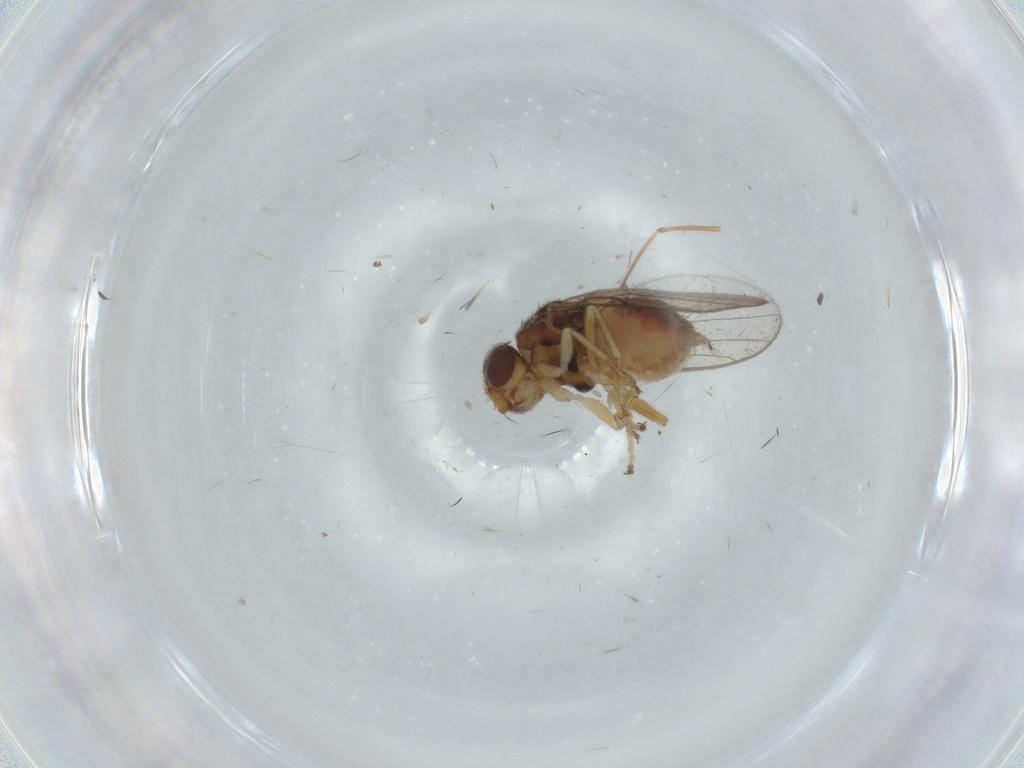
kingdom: Animalia
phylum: Arthropoda
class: Insecta
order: Diptera
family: Chloropidae
